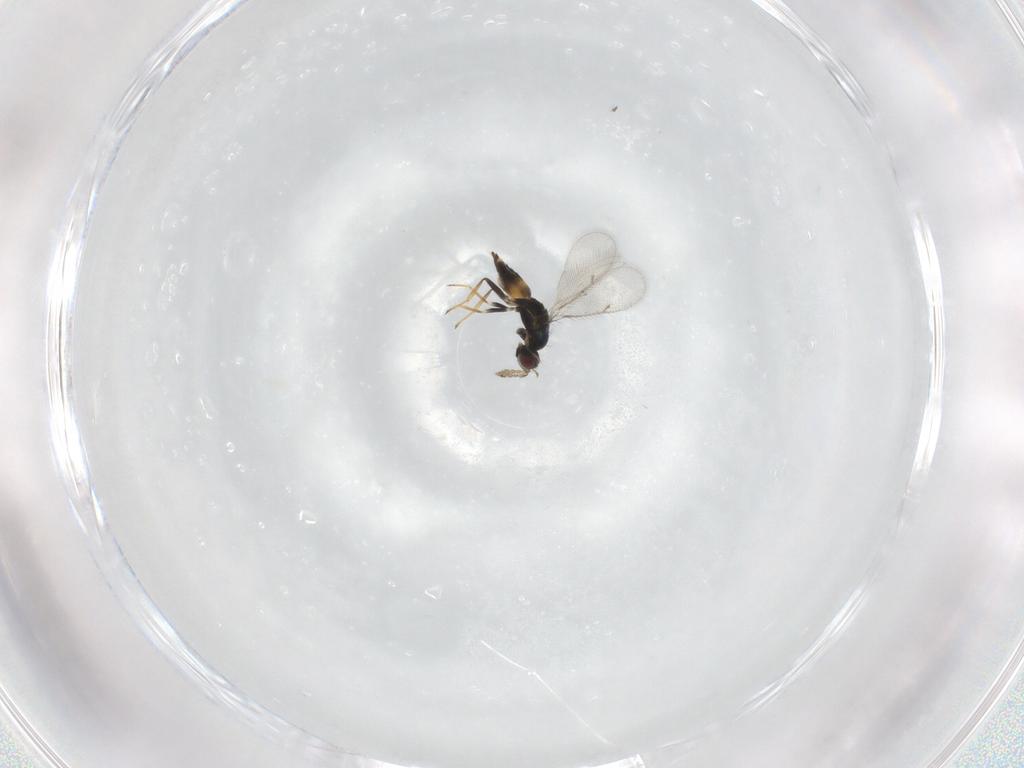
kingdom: Animalia
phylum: Arthropoda
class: Insecta
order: Hymenoptera
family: Eulophidae
